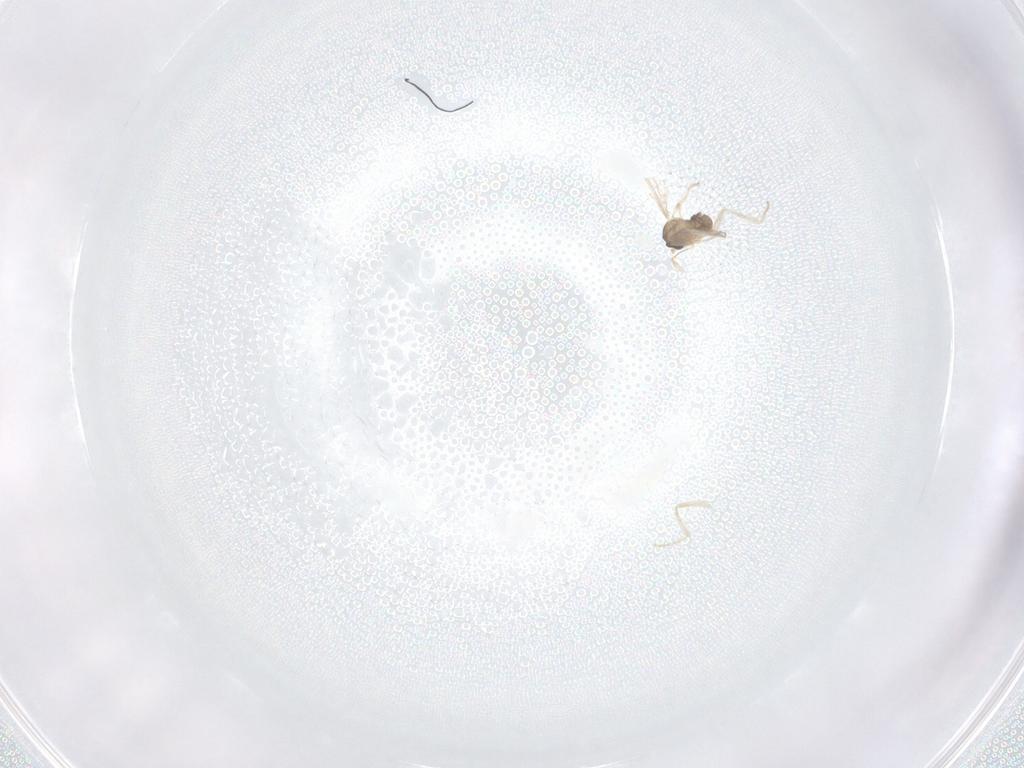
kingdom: Animalia
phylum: Arthropoda
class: Insecta
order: Diptera
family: Cecidomyiidae
